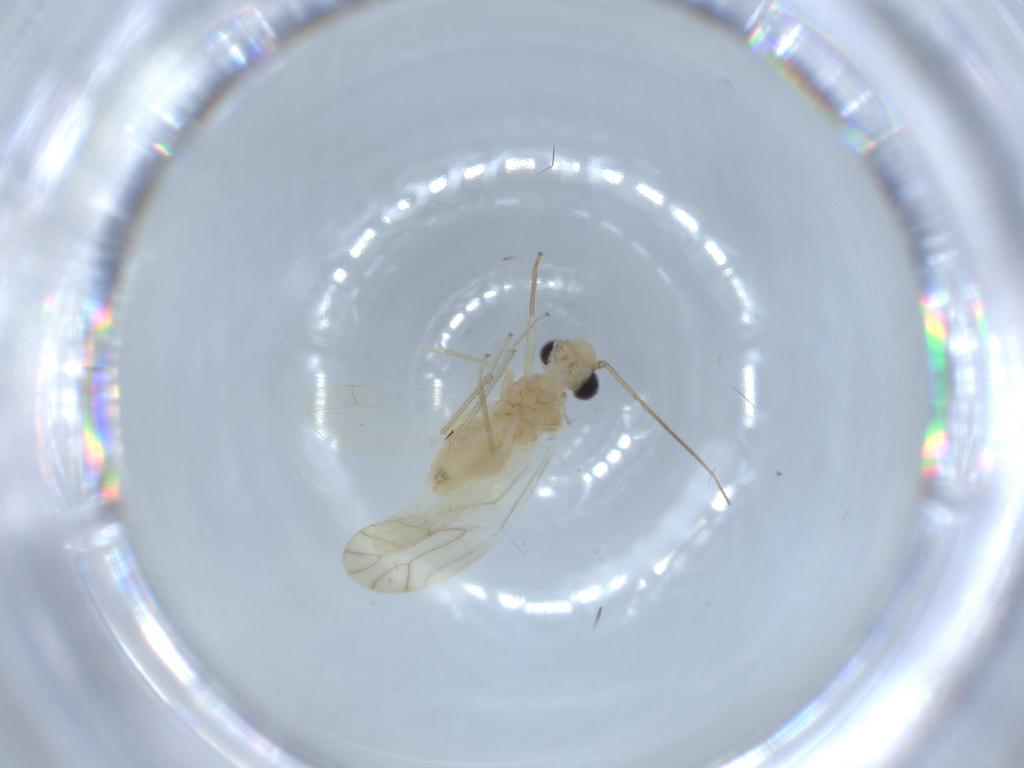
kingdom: Animalia
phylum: Arthropoda
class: Insecta
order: Psocodea
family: Caeciliusidae
